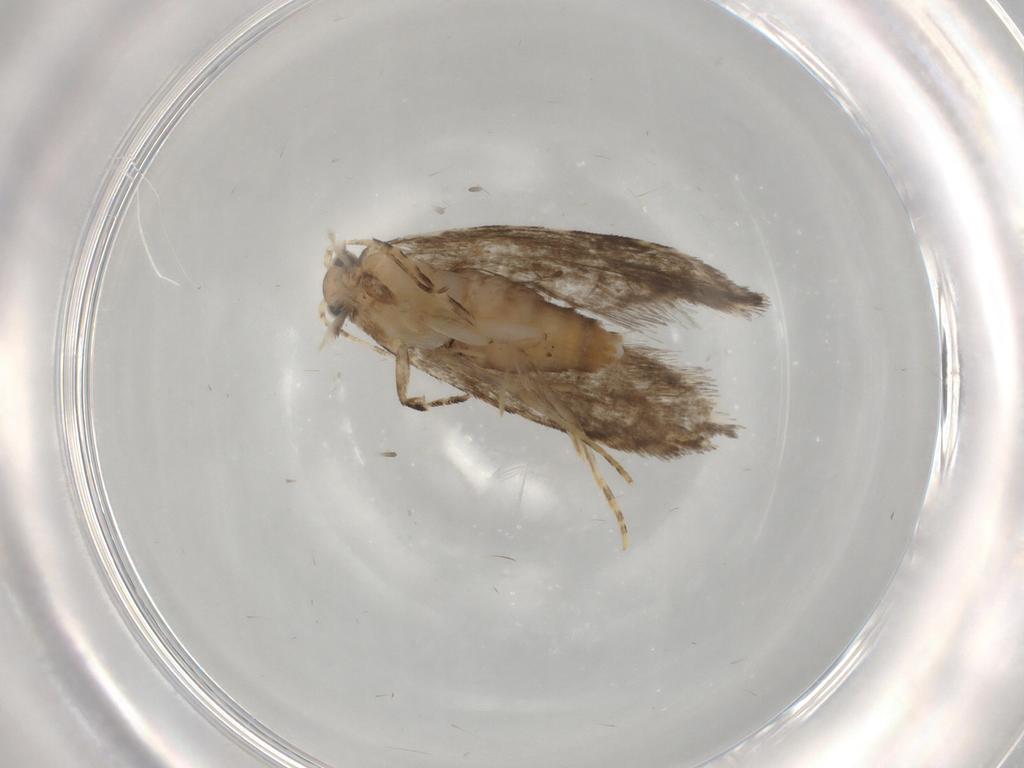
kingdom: Animalia
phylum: Arthropoda
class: Insecta
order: Lepidoptera
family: Tineidae
